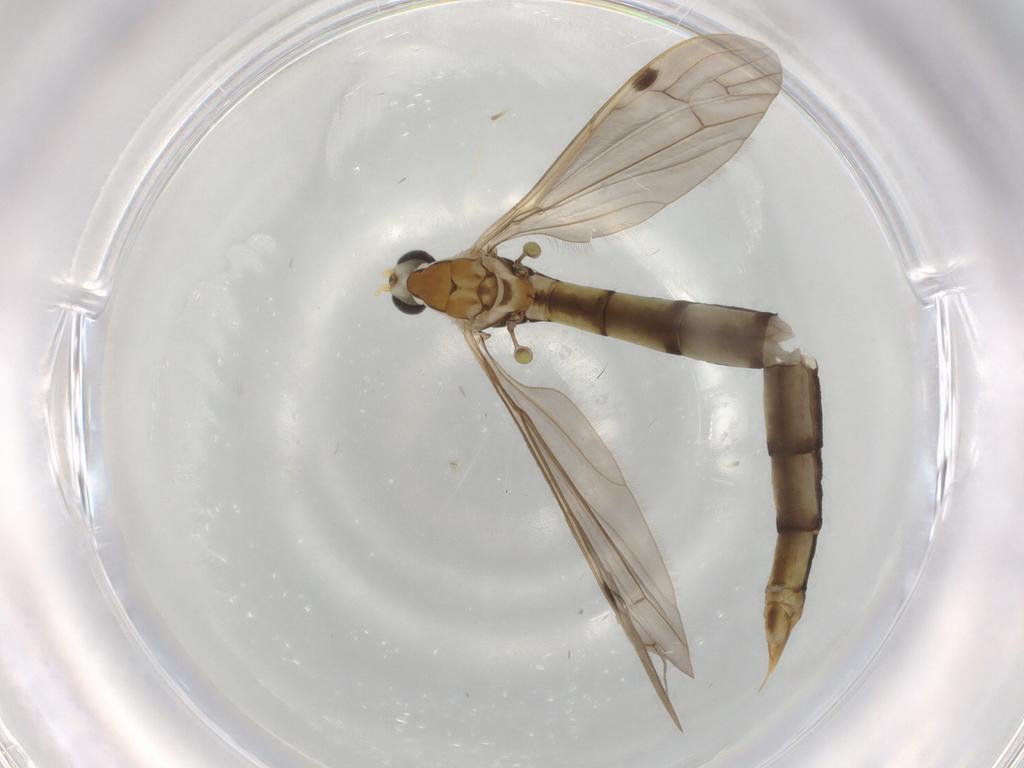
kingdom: Animalia
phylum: Arthropoda
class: Insecta
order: Diptera
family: Limoniidae
